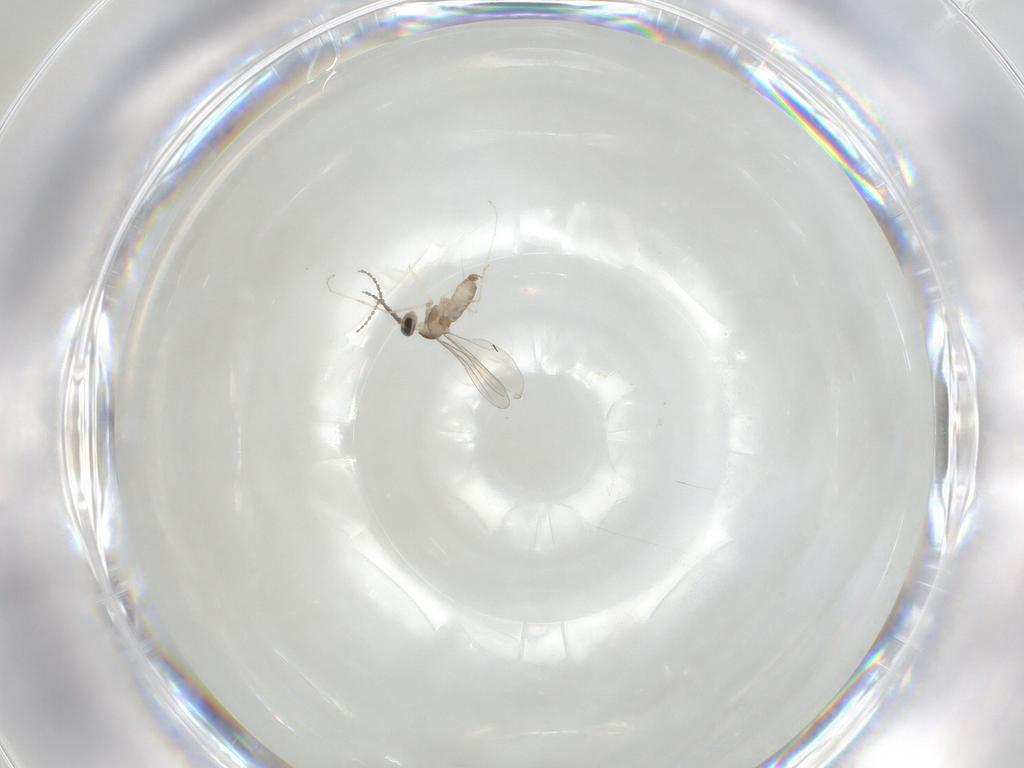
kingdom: Animalia
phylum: Arthropoda
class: Insecta
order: Diptera
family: Cecidomyiidae
